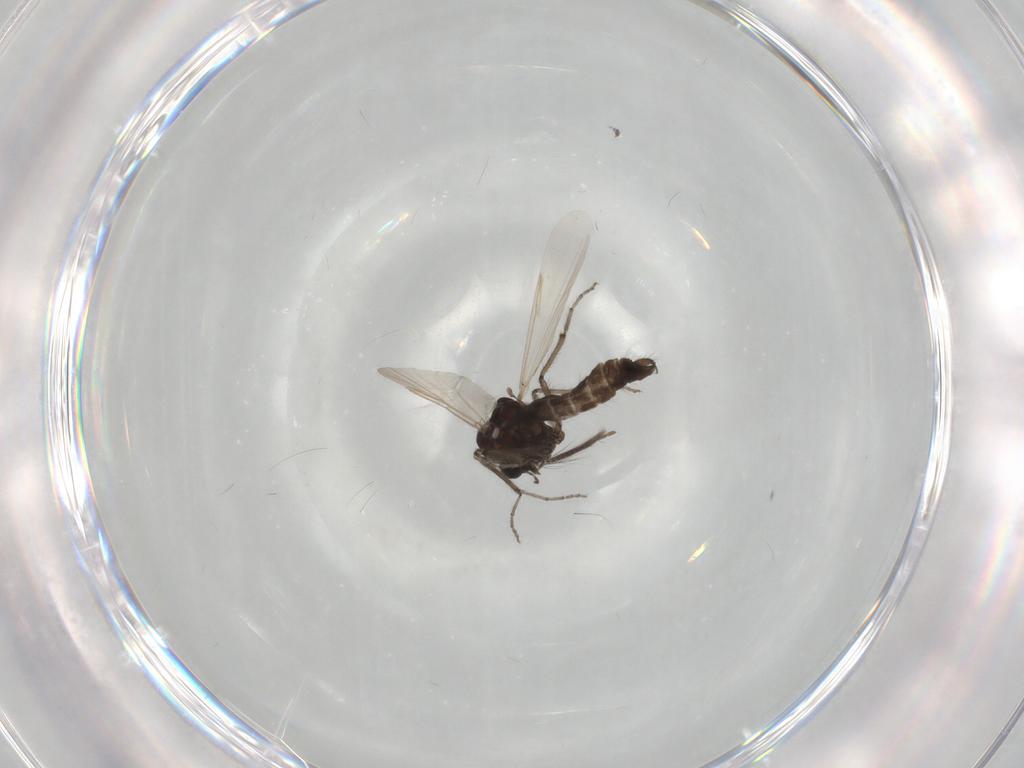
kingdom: Animalia
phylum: Arthropoda
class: Insecta
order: Diptera
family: Ceratopogonidae
